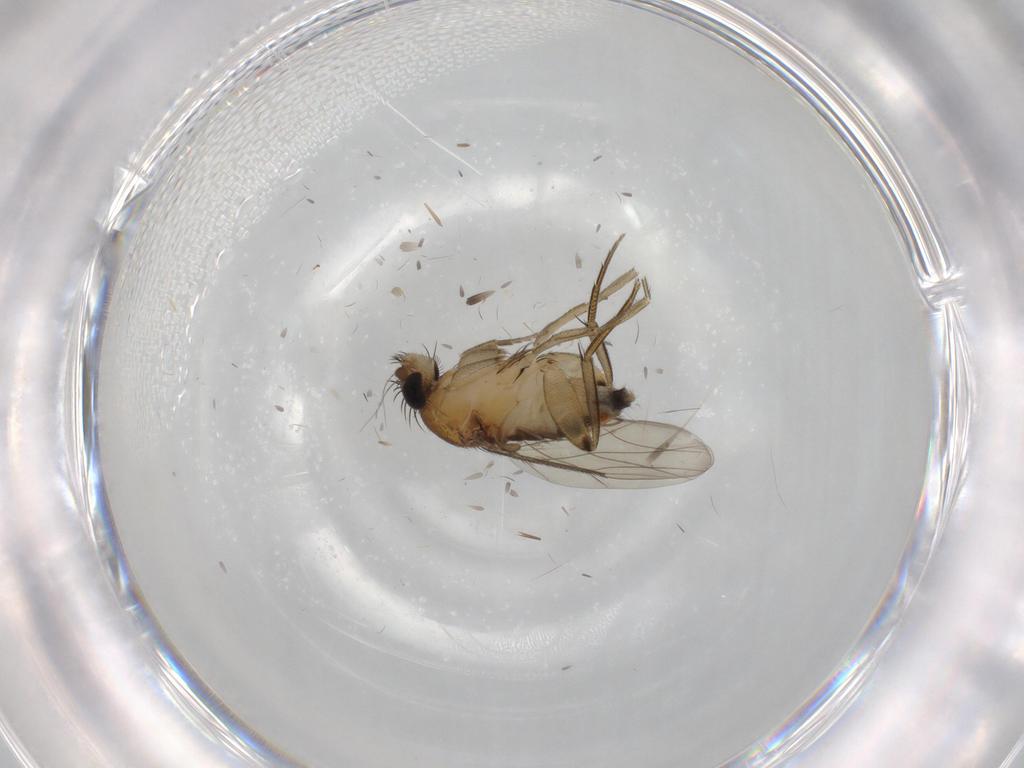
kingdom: Animalia
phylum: Arthropoda
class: Insecta
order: Diptera
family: Phoridae
